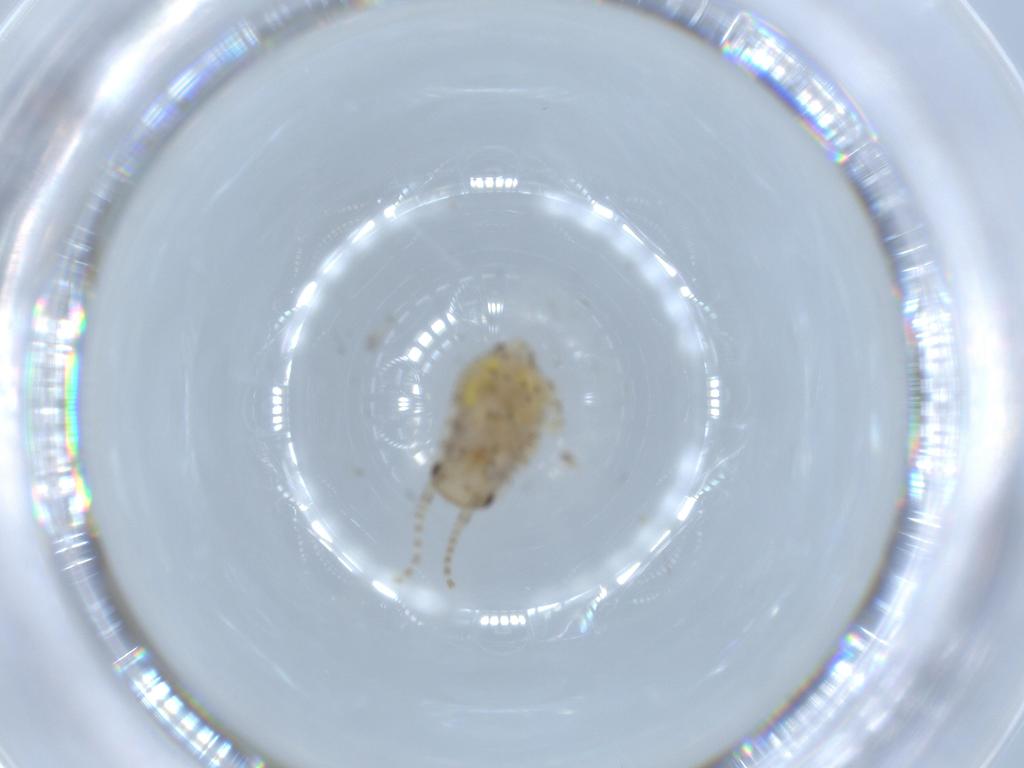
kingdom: Animalia
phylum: Arthropoda
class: Insecta
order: Blattodea
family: Ectobiidae
